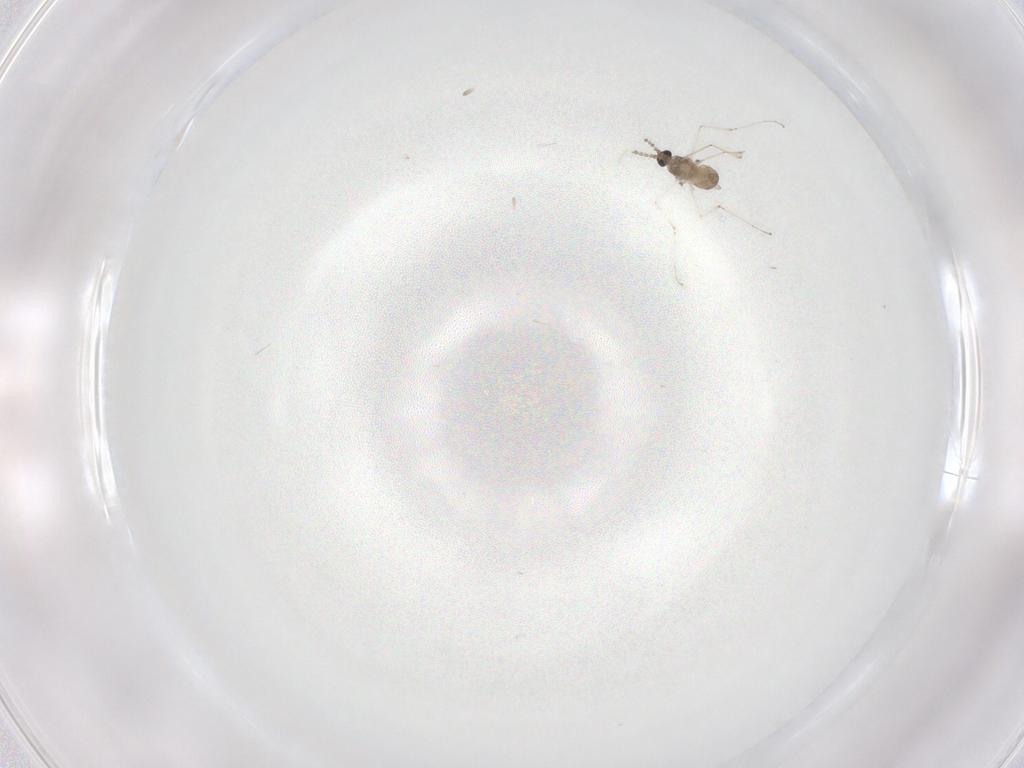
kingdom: Animalia
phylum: Arthropoda
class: Insecta
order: Diptera
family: Cecidomyiidae
